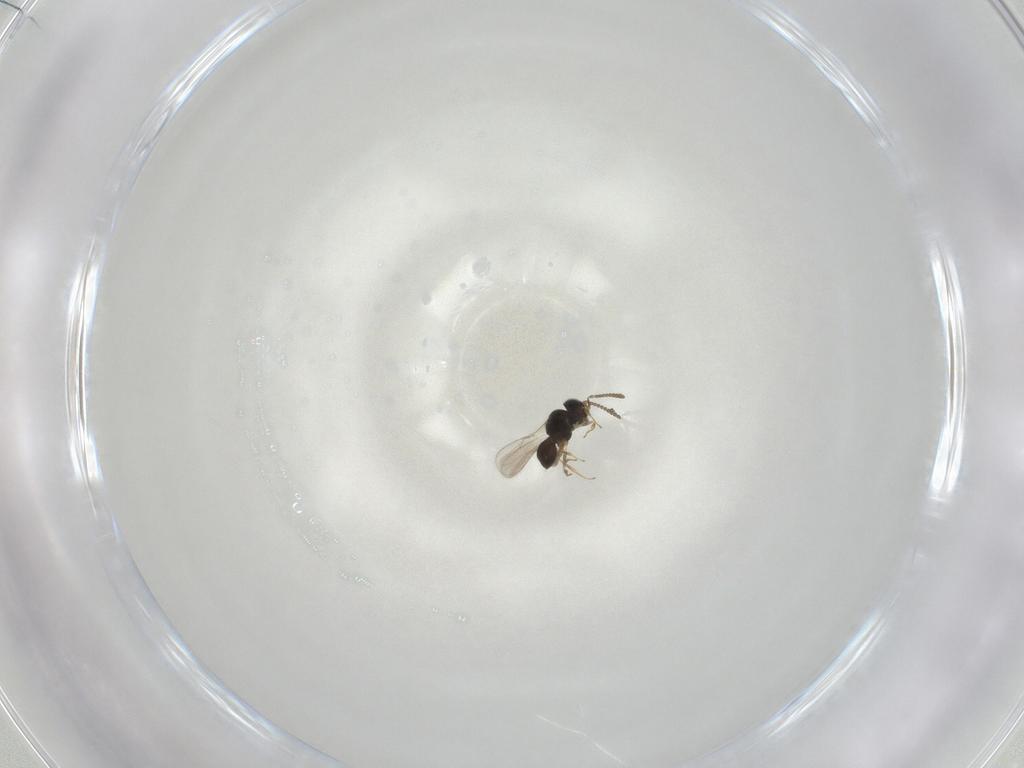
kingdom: Animalia
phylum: Arthropoda
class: Insecta
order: Hymenoptera
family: Scelionidae
